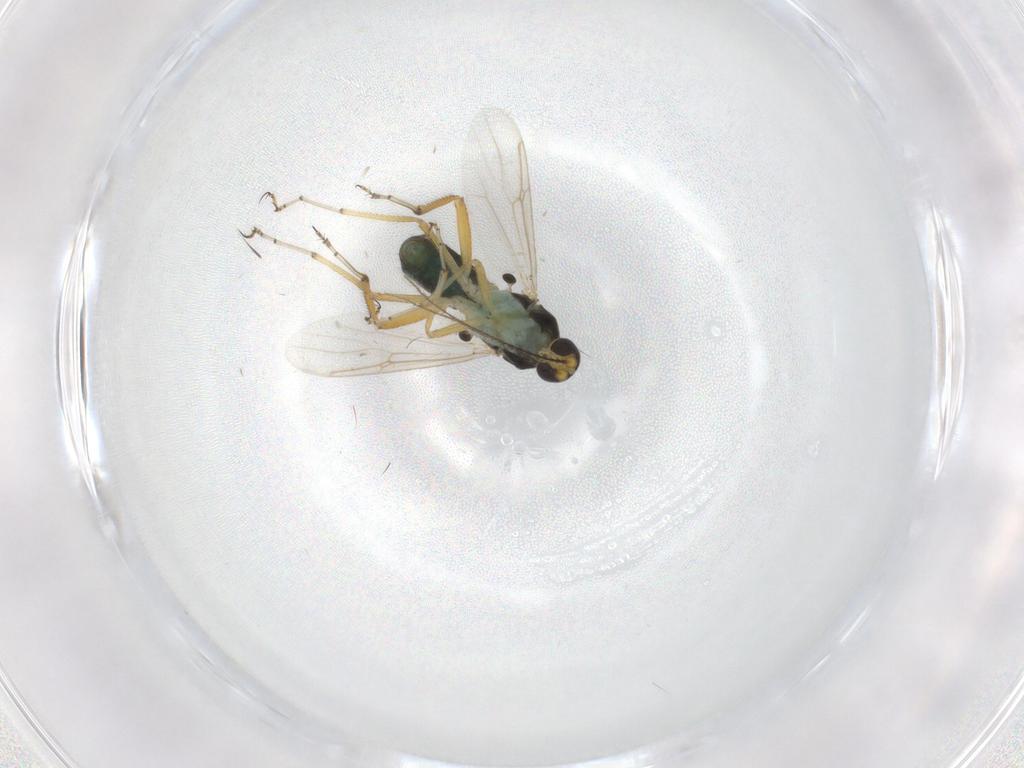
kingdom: Animalia
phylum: Arthropoda
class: Insecta
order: Diptera
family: Ceratopogonidae
